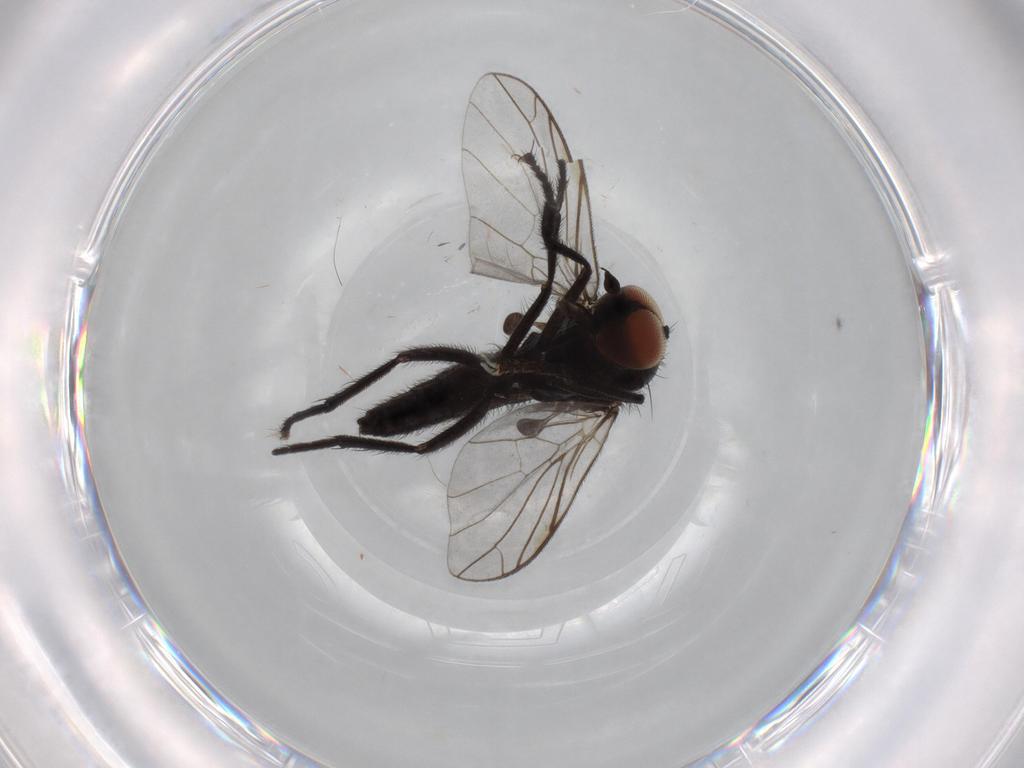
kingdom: Animalia
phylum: Arthropoda
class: Insecta
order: Diptera
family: Empididae
